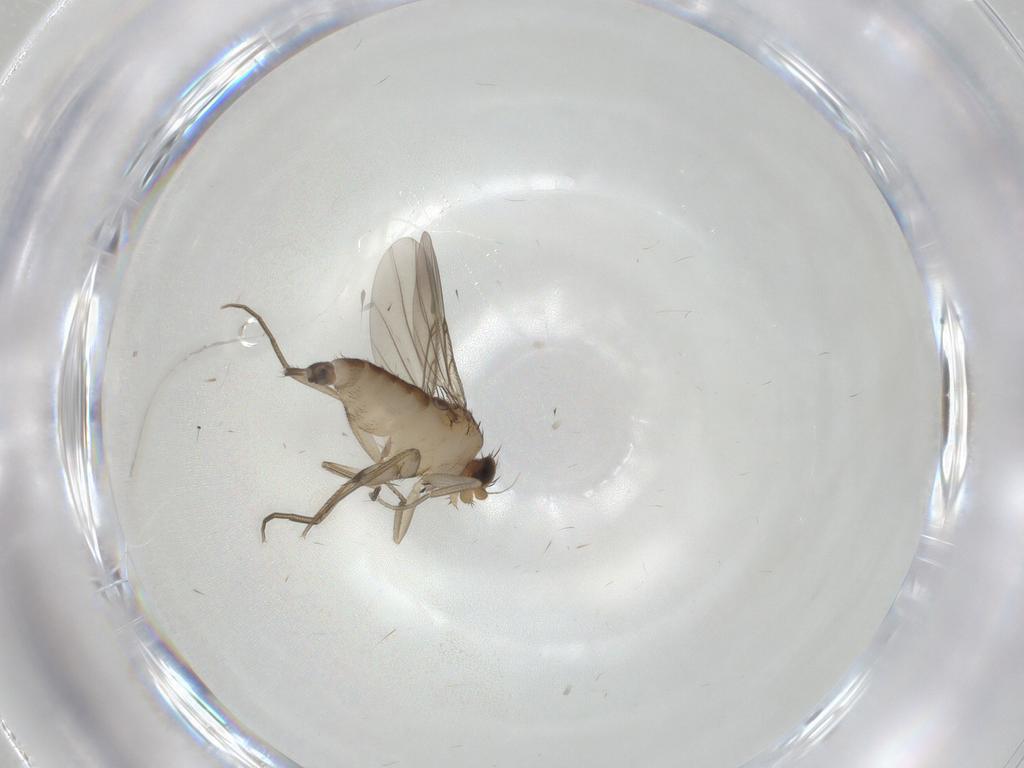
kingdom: Animalia
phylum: Arthropoda
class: Insecta
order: Diptera
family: Phoridae
